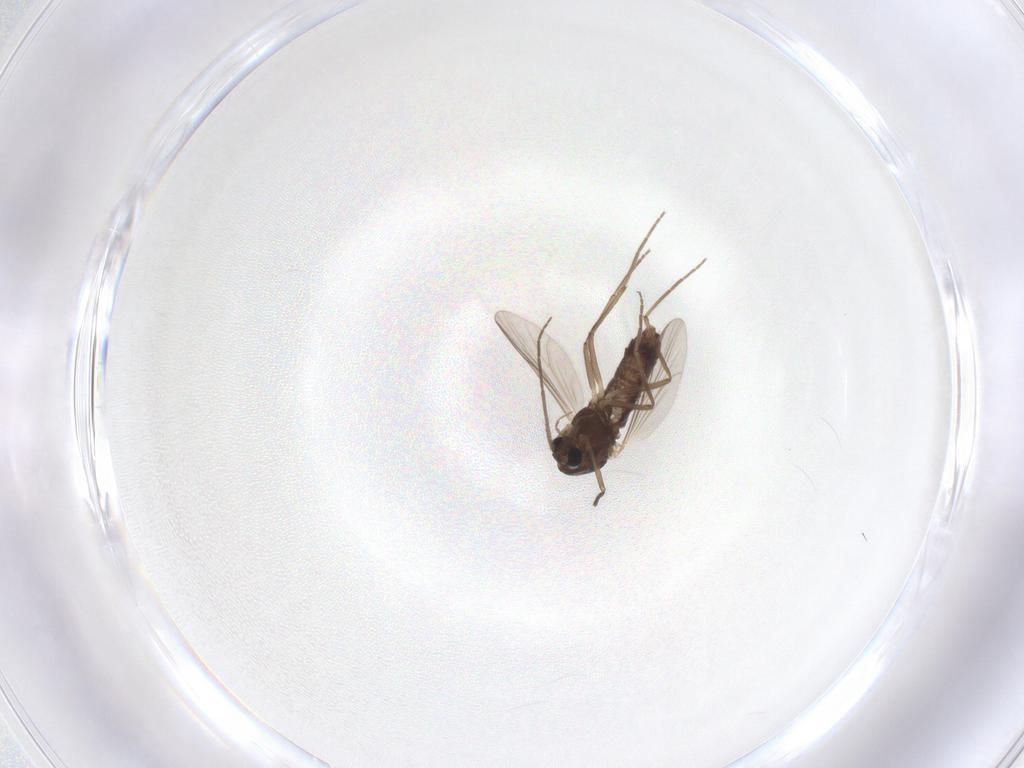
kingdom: Animalia
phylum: Arthropoda
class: Insecta
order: Diptera
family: Chironomidae
